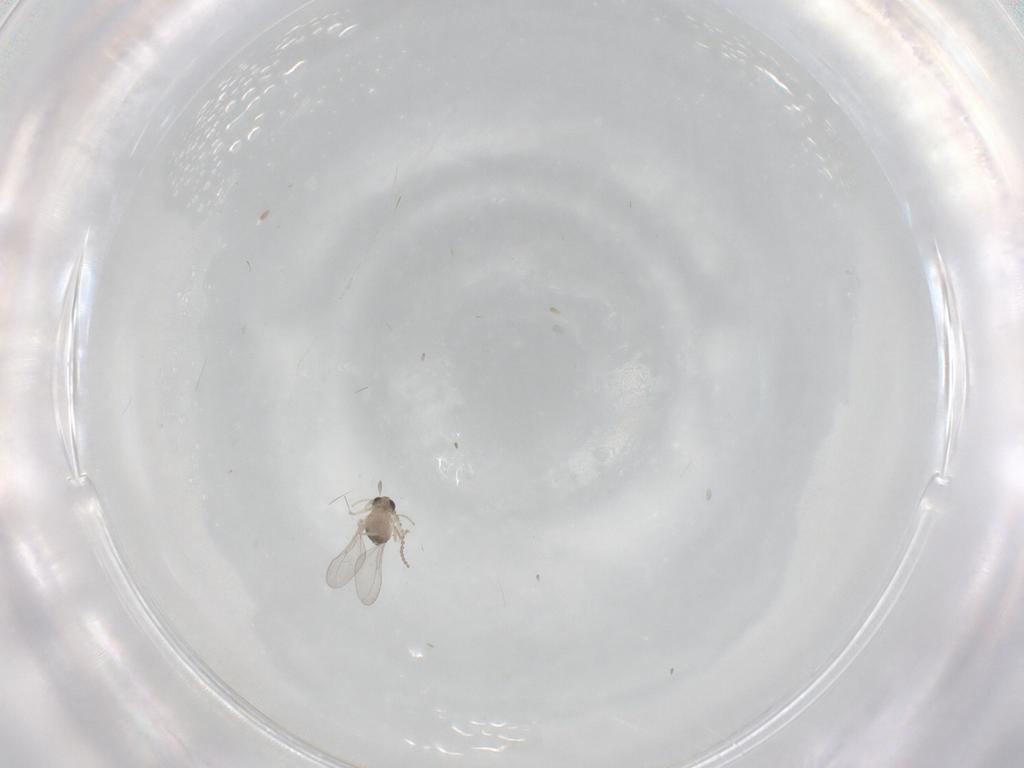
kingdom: Animalia
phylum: Arthropoda
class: Insecta
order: Diptera
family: Cecidomyiidae
